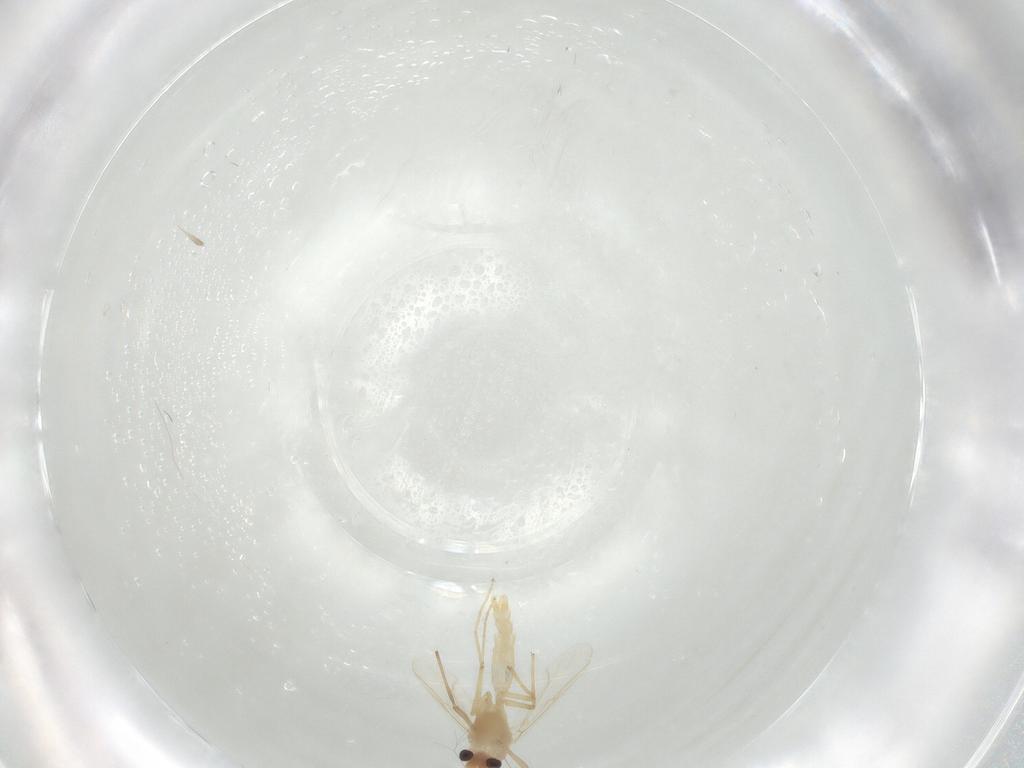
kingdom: Animalia
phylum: Arthropoda
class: Insecta
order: Diptera
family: Chironomidae
